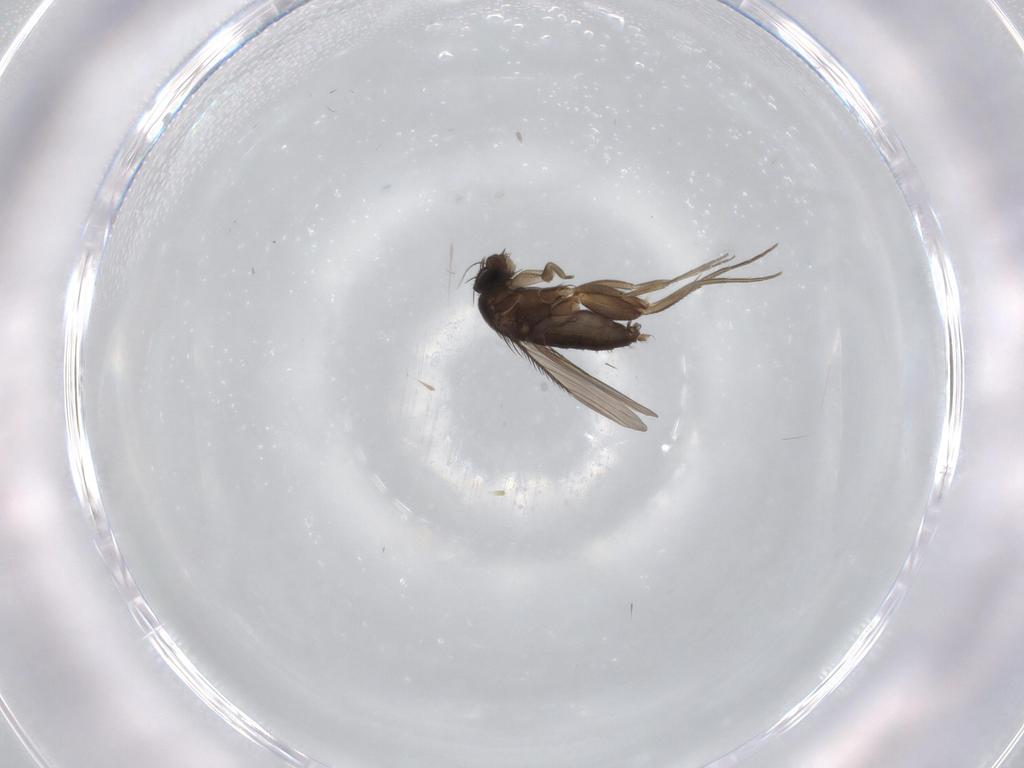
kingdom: Animalia
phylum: Arthropoda
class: Insecta
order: Diptera
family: Phoridae
